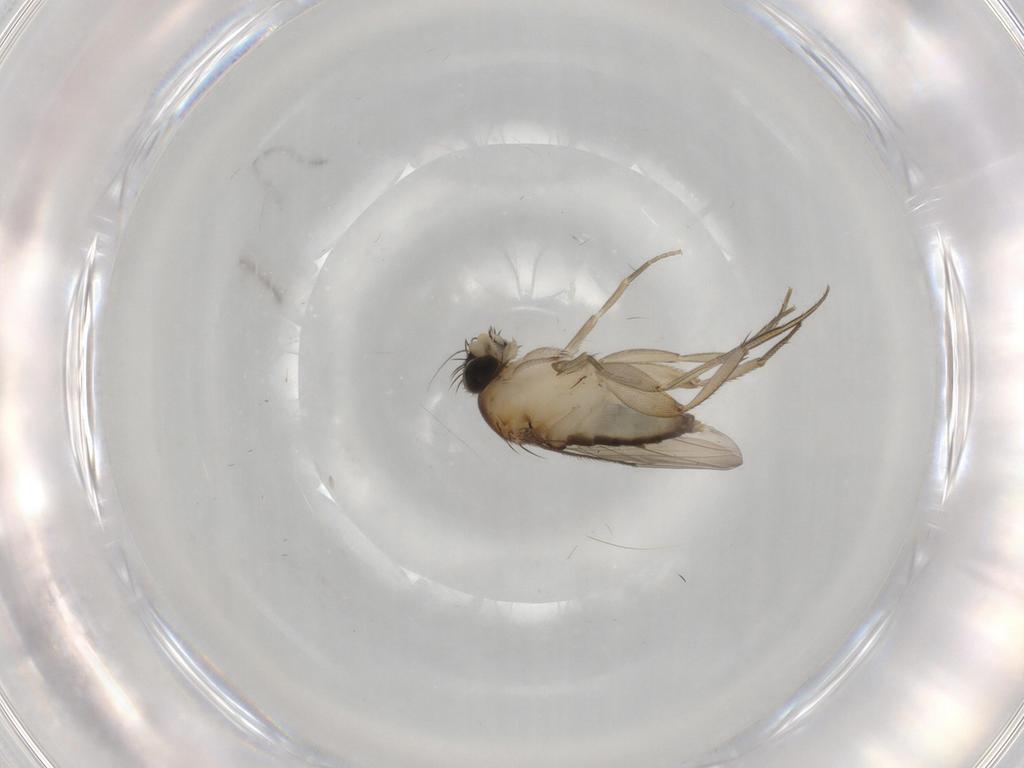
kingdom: Animalia
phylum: Arthropoda
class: Insecta
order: Diptera
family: Phoridae
